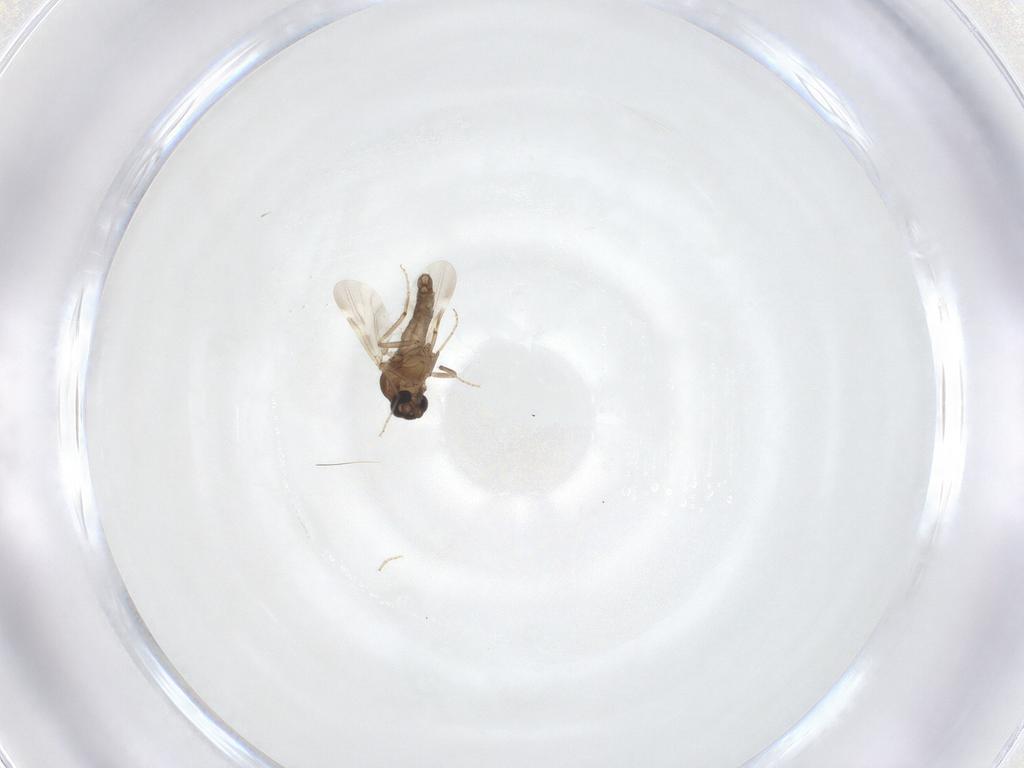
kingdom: Animalia
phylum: Arthropoda
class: Insecta
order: Diptera
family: Ceratopogonidae
